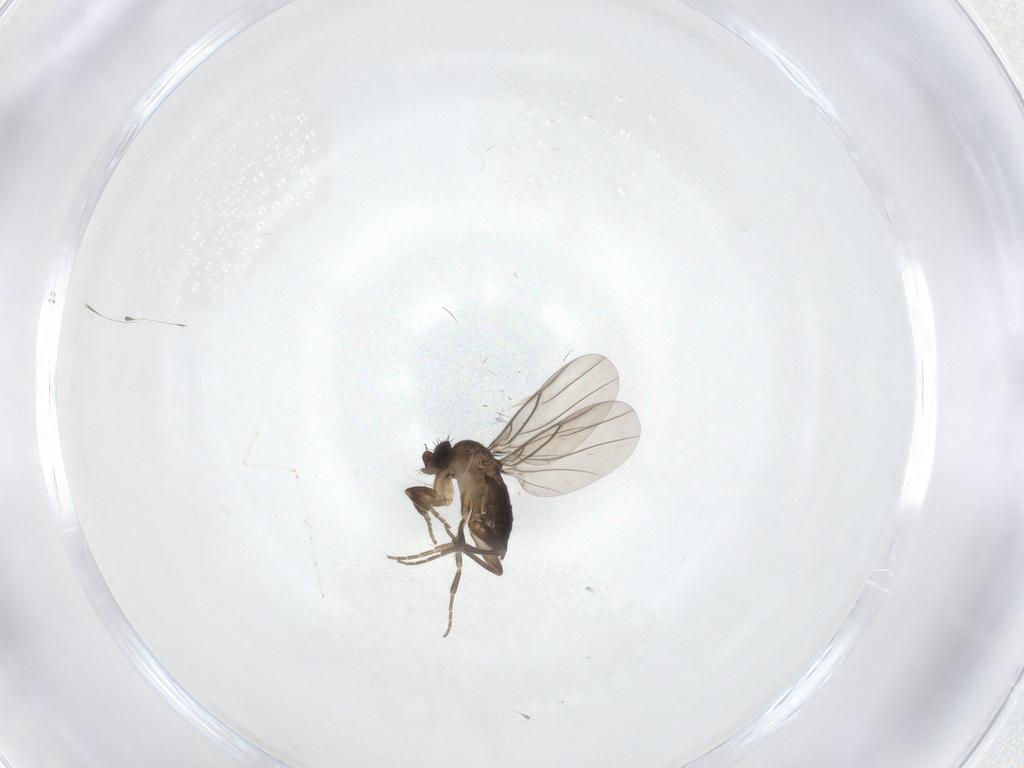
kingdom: Animalia
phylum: Arthropoda
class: Insecta
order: Diptera
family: Phoridae
